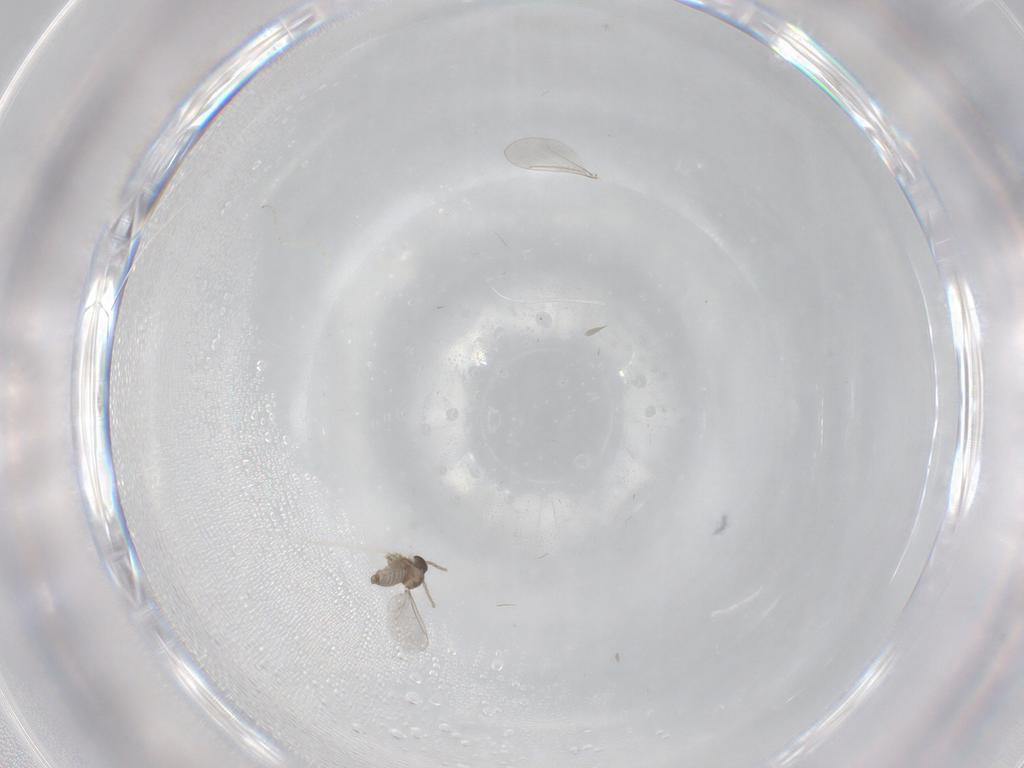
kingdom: Animalia
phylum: Arthropoda
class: Insecta
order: Diptera
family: Cecidomyiidae
